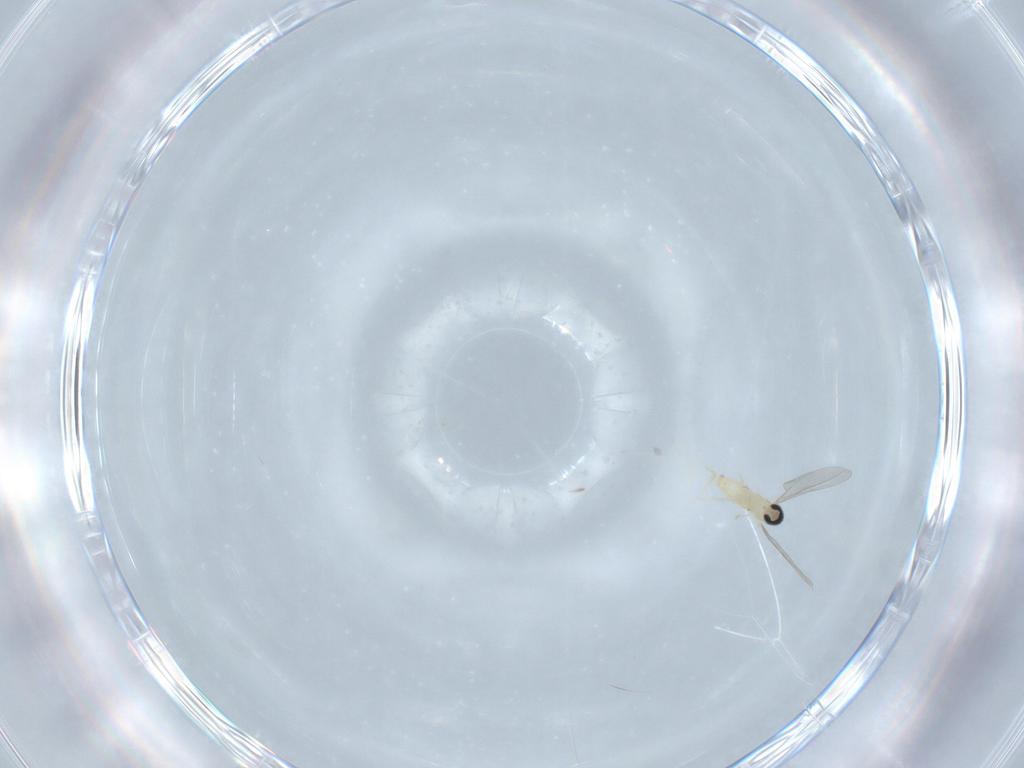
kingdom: Animalia
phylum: Arthropoda
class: Insecta
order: Diptera
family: Cecidomyiidae
